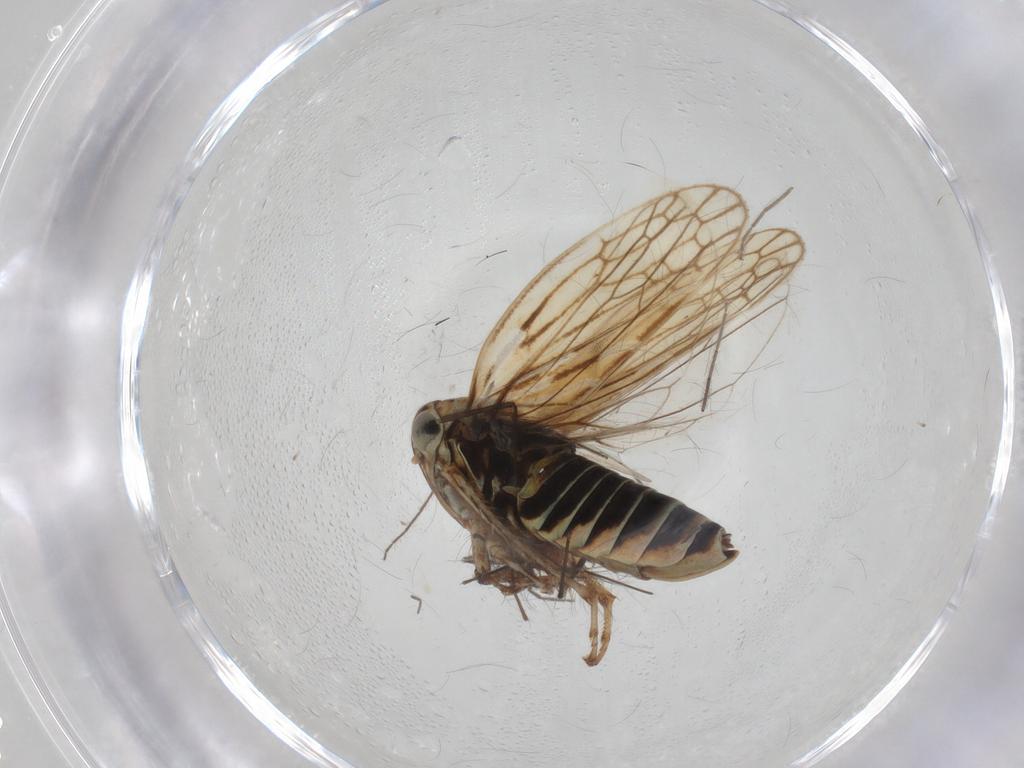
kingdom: Animalia
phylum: Arthropoda
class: Insecta
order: Hemiptera
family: Cicadellidae
